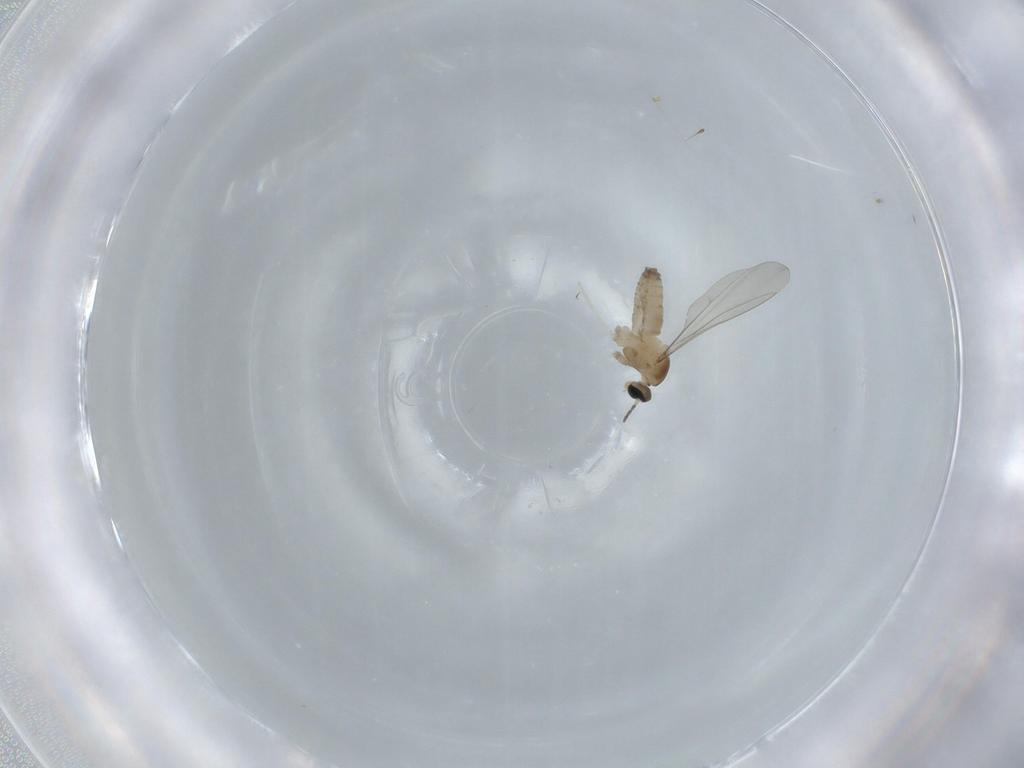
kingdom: Animalia
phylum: Arthropoda
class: Insecta
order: Diptera
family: Cecidomyiidae
